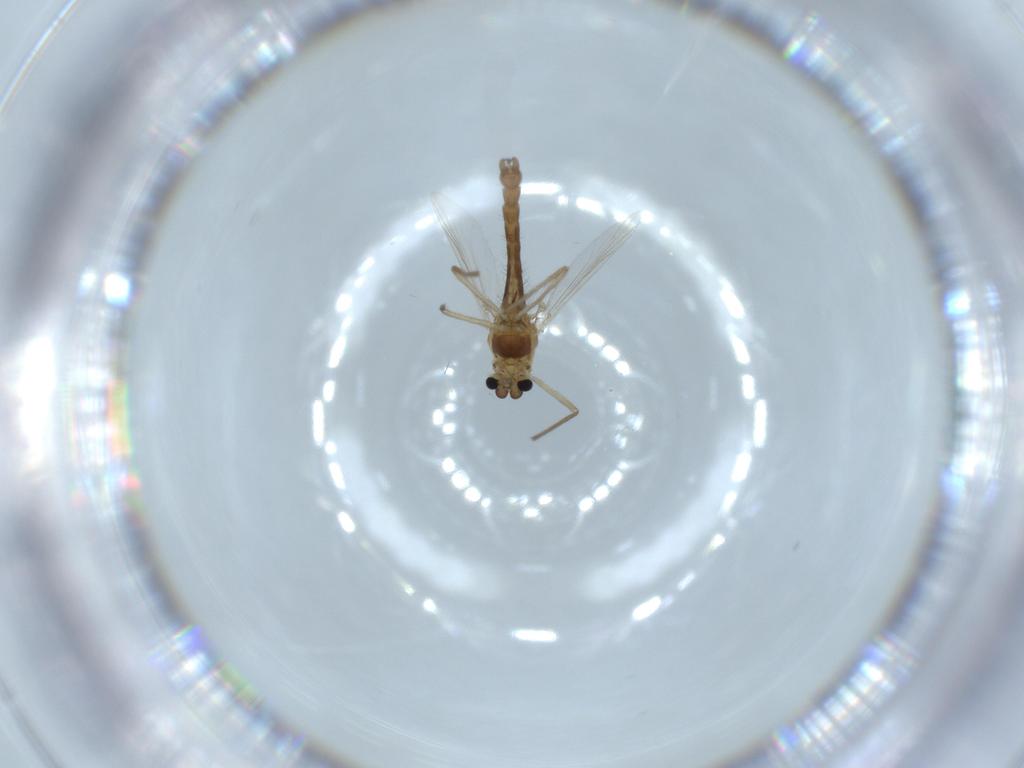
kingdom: Animalia
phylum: Arthropoda
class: Insecta
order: Diptera
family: Chironomidae
